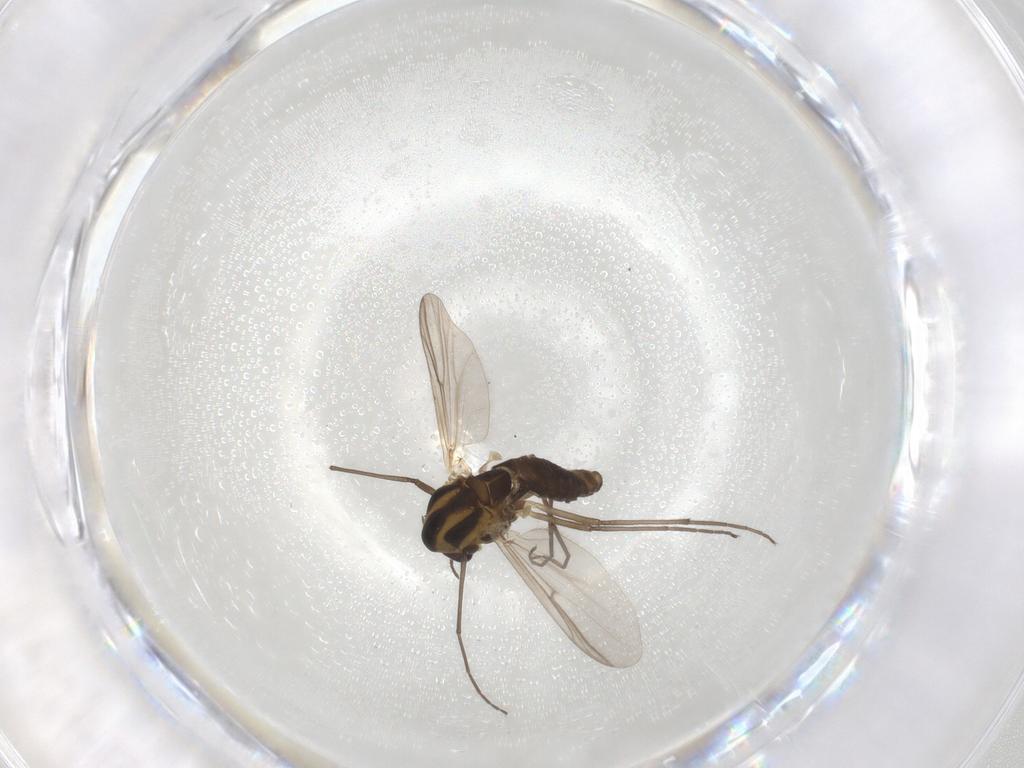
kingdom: Animalia
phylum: Arthropoda
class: Insecta
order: Diptera
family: Chironomidae
